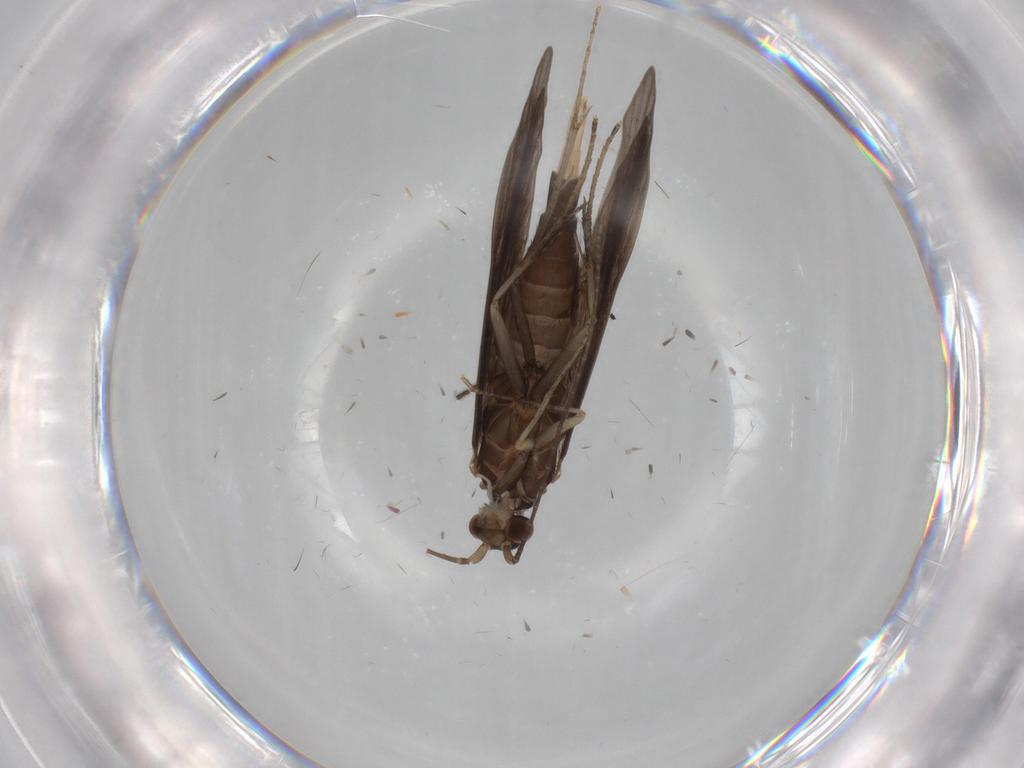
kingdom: Animalia
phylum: Arthropoda
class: Insecta
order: Trichoptera
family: Xiphocentronidae
